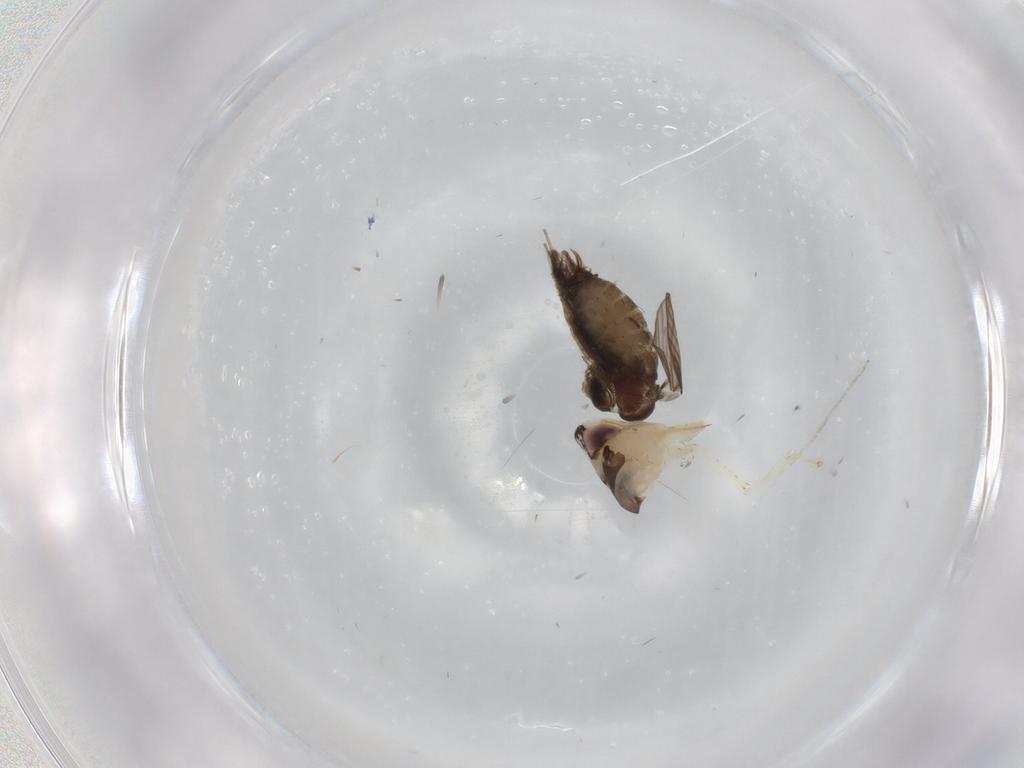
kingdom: Animalia
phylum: Arthropoda
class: Insecta
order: Hemiptera
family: Cicadellidae
